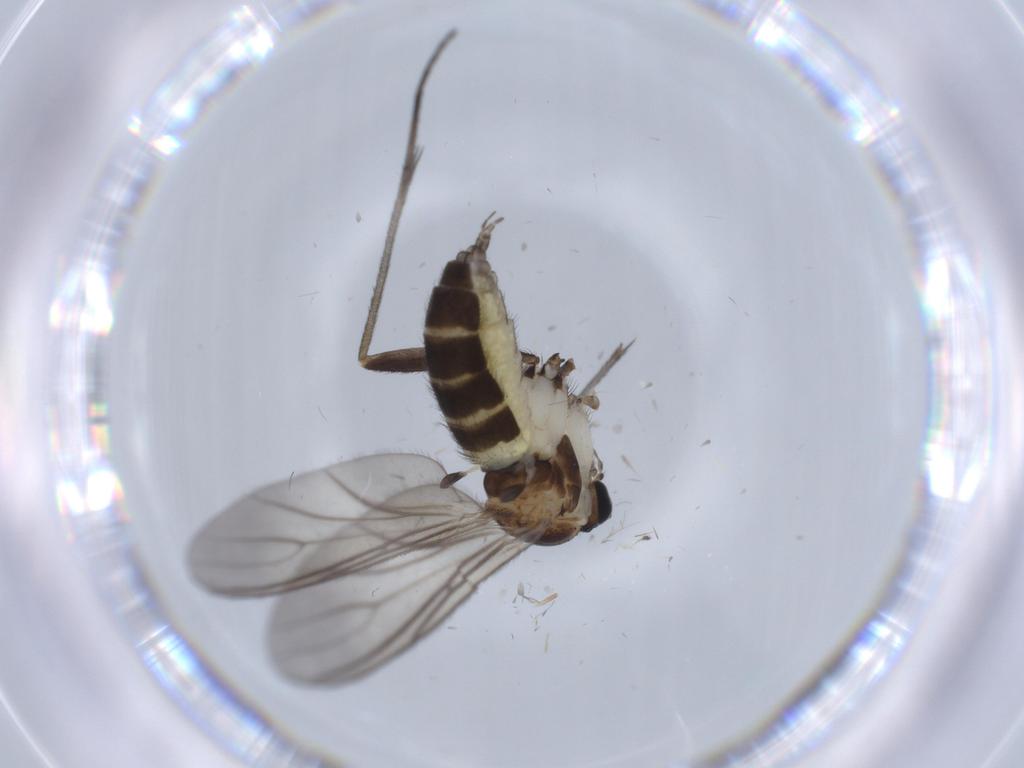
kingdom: Animalia
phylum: Arthropoda
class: Insecta
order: Diptera
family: Sciaridae
